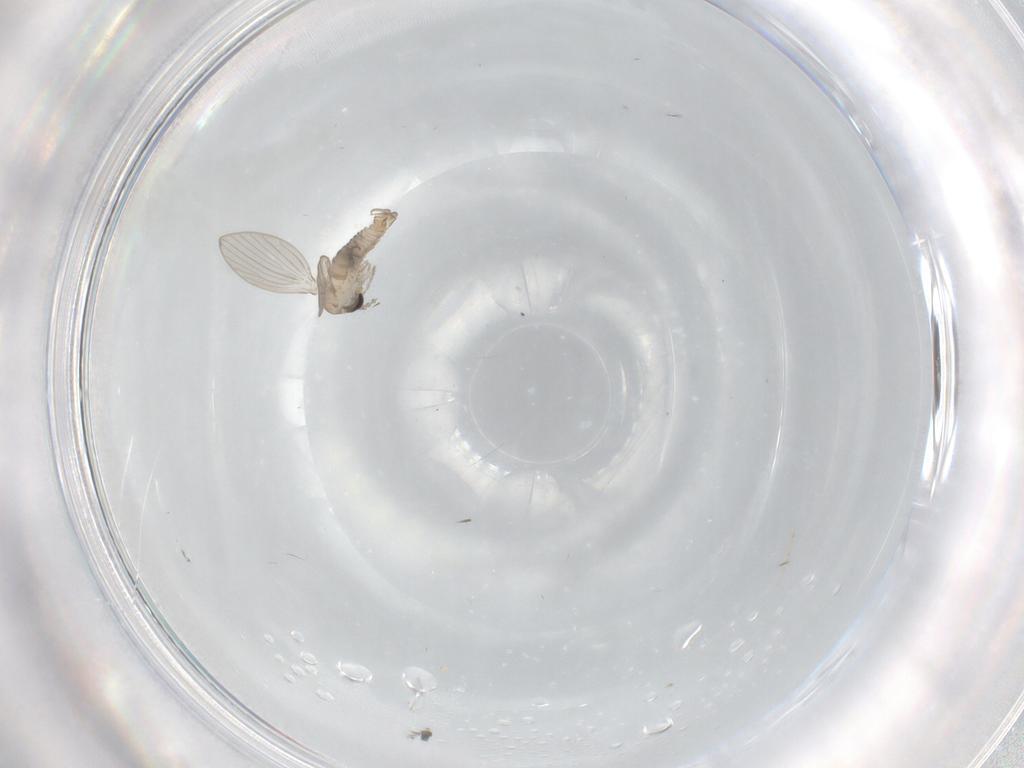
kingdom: Animalia
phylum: Arthropoda
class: Insecta
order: Diptera
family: Psychodidae
